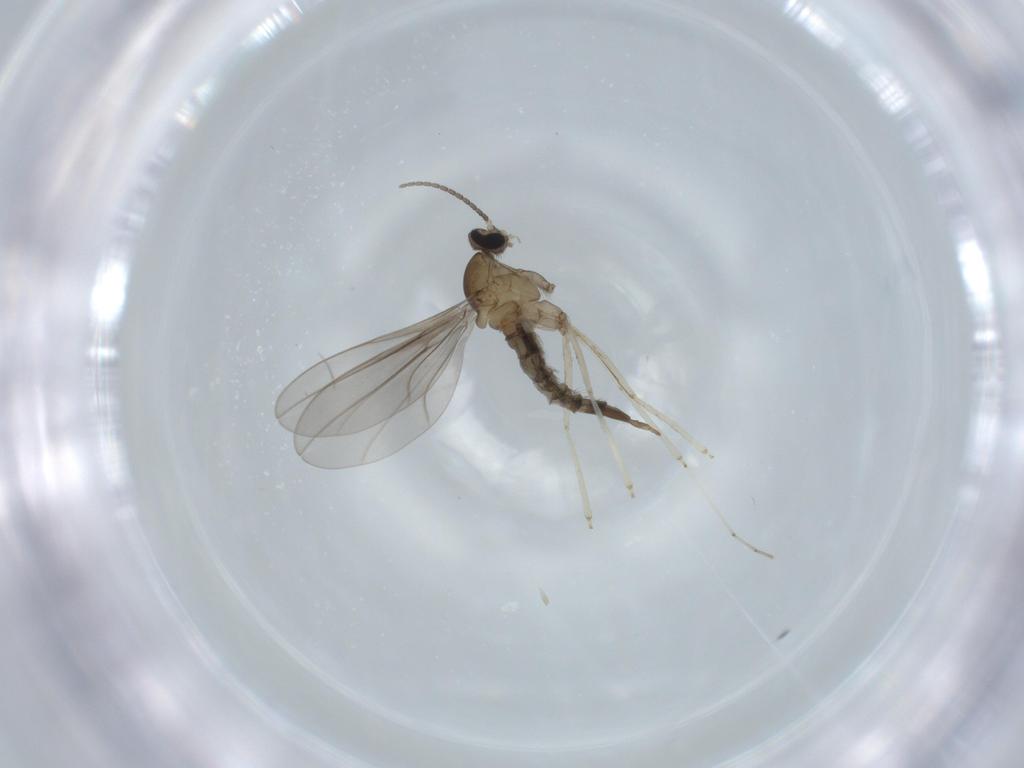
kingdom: Animalia
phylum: Arthropoda
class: Insecta
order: Diptera
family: Cecidomyiidae
